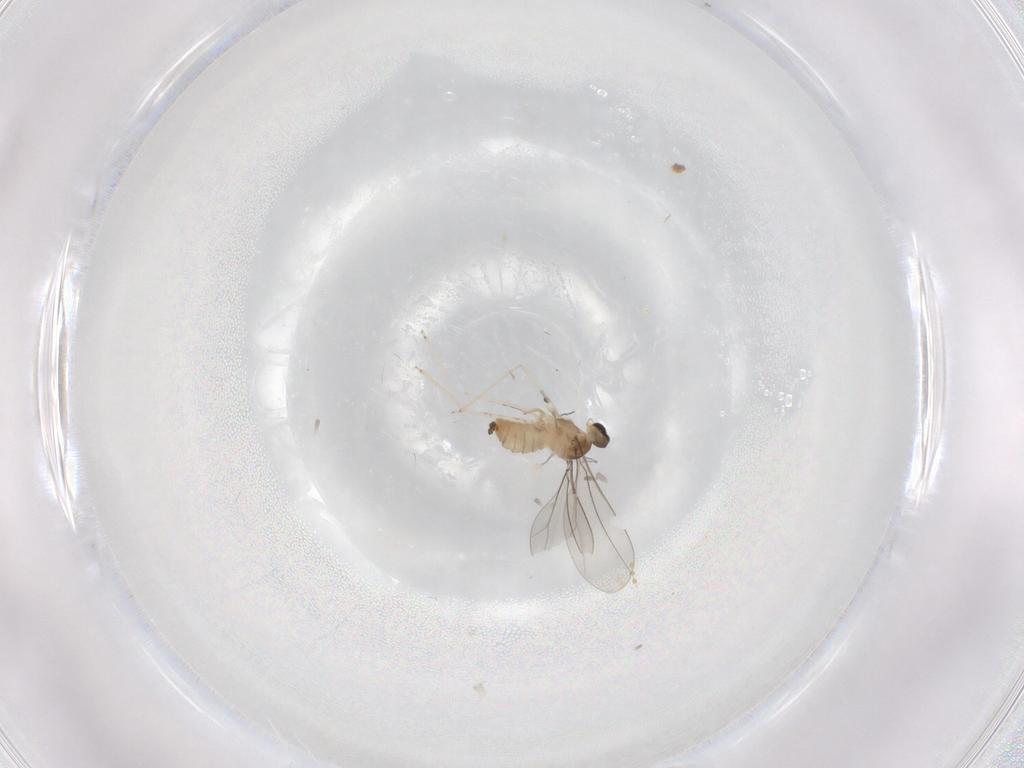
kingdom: Animalia
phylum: Arthropoda
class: Insecta
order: Diptera
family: Cecidomyiidae
